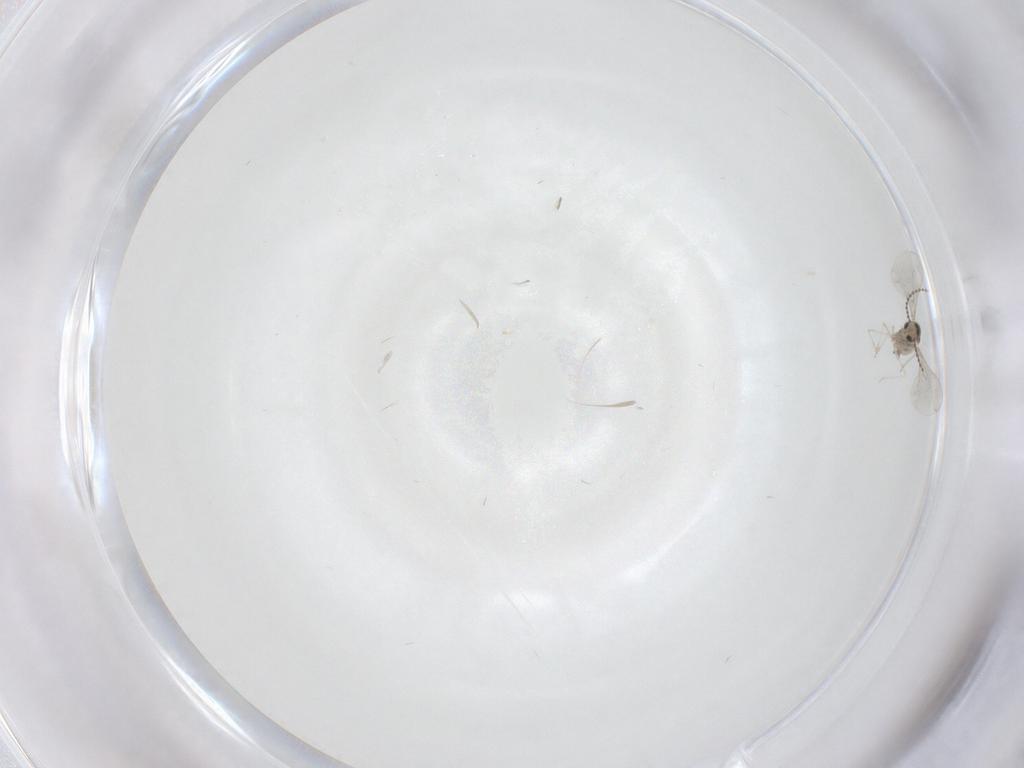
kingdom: Animalia
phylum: Arthropoda
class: Insecta
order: Diptera
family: Cecidomyiidae
